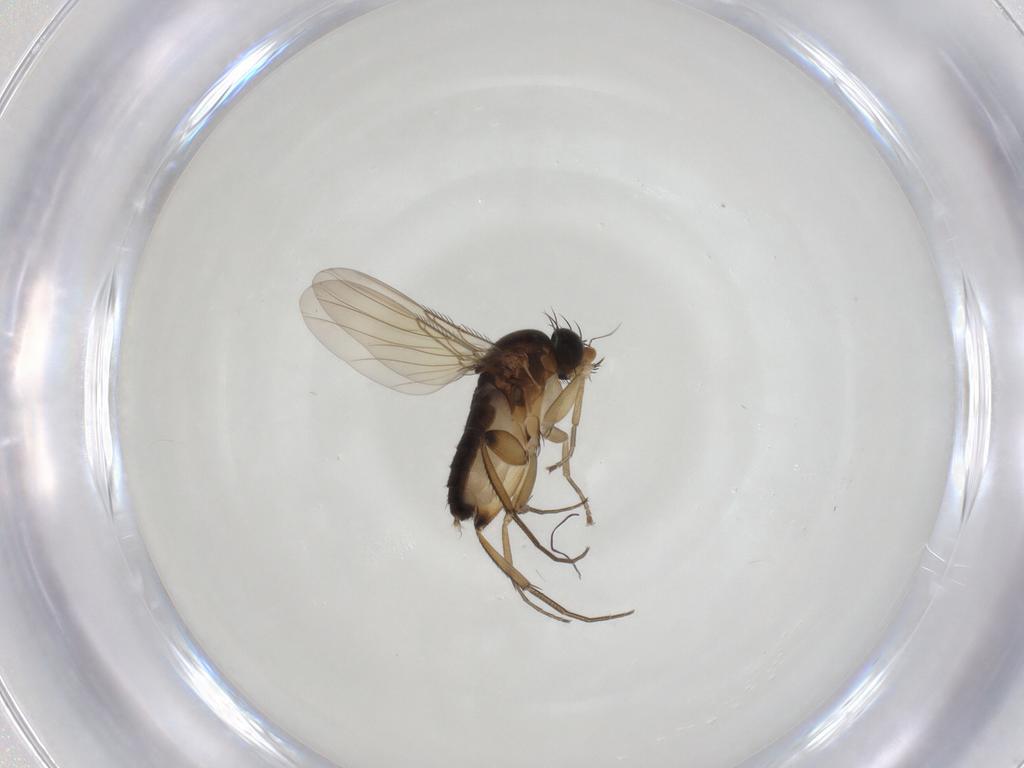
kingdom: Animalia
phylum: Arthropoda
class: Insecta
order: Diptera
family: Phoridae
